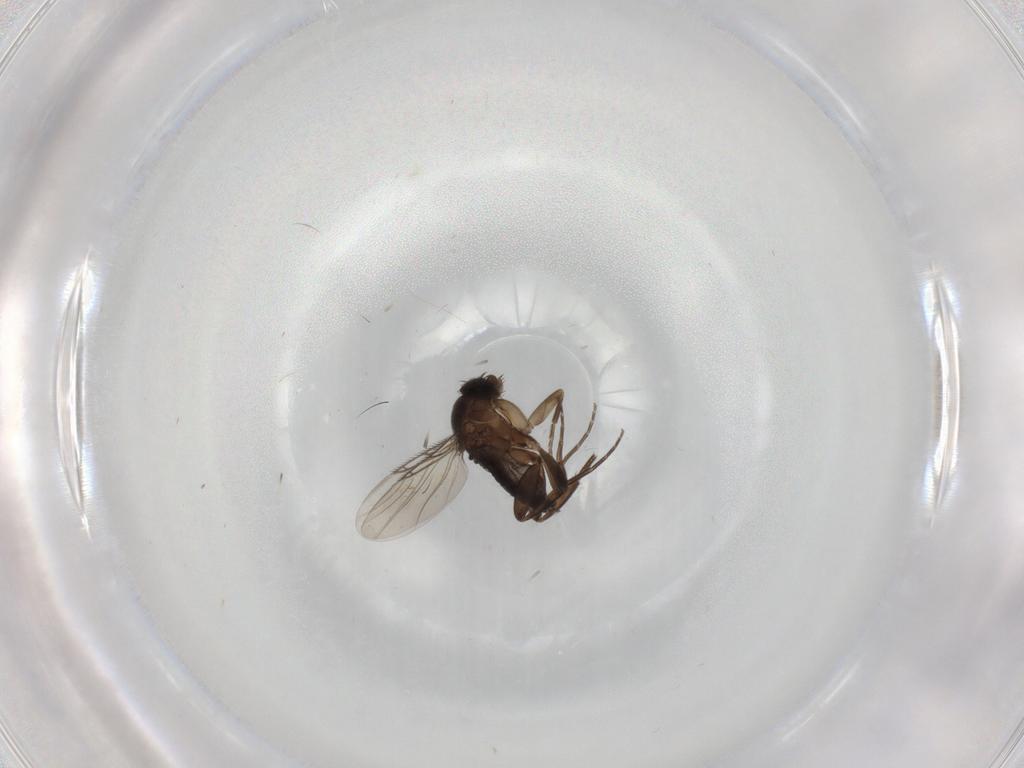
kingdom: Animalia
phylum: Arthropoda
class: Insecta
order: Diptera
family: Phoridae
